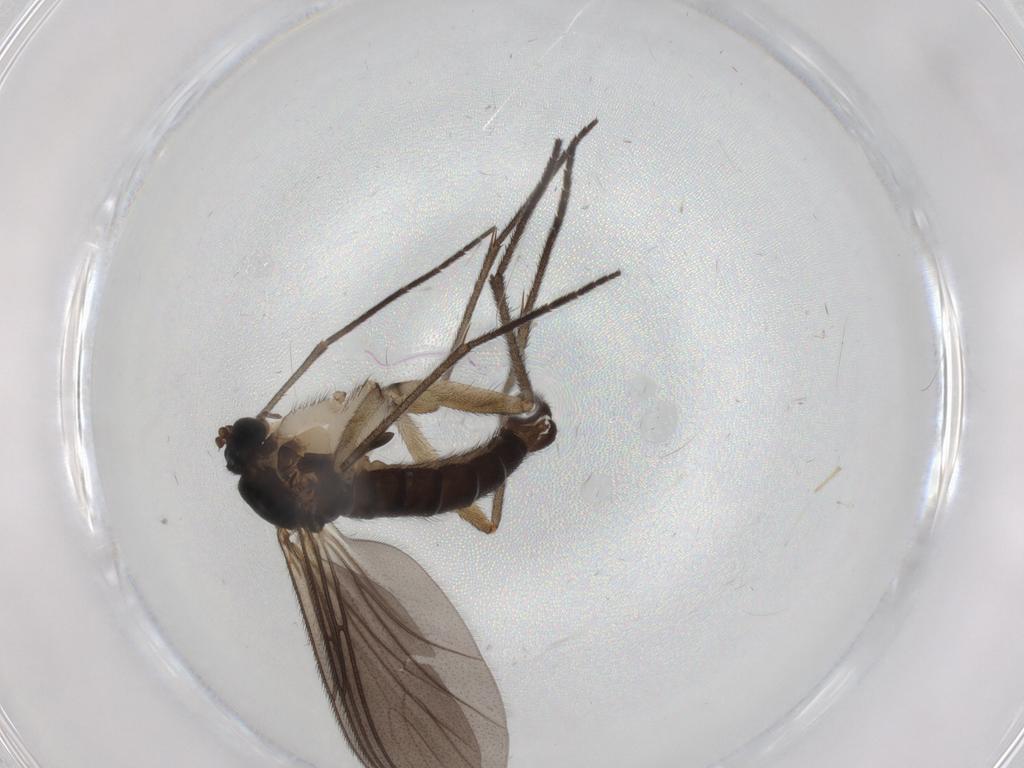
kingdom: Animalia
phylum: Arthropoda
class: Insecta
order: Diptera
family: Sciaridae
